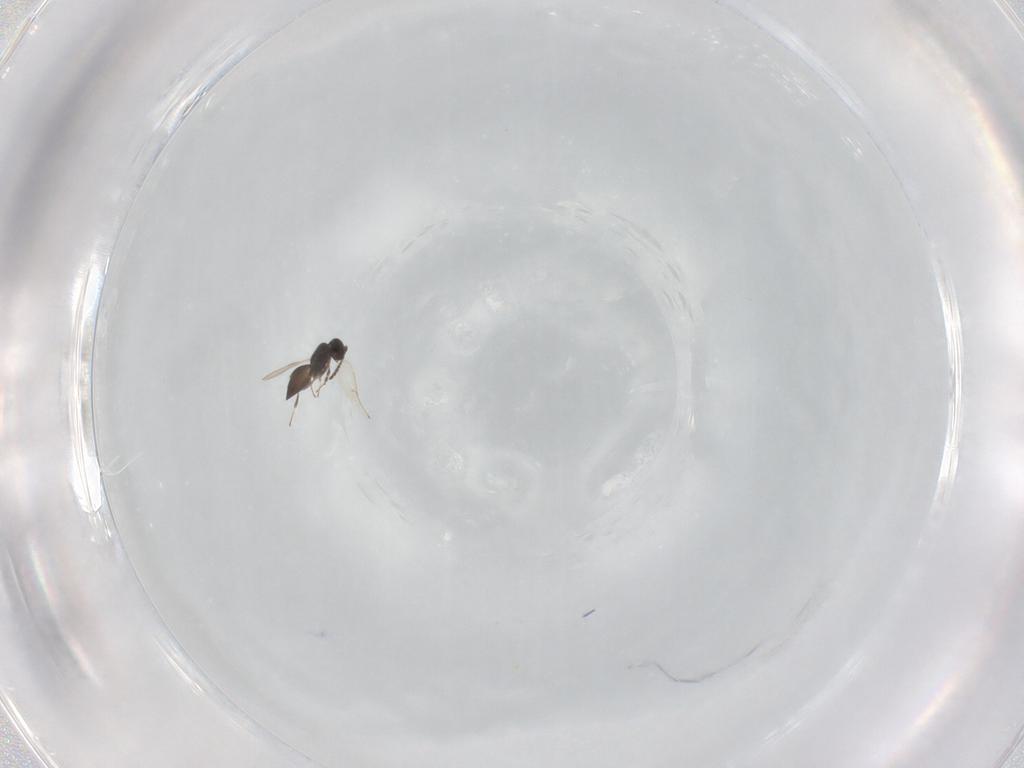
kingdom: Animalia
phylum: Arthropoda
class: Insecta
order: Hymenoptera
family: Scelionidae
